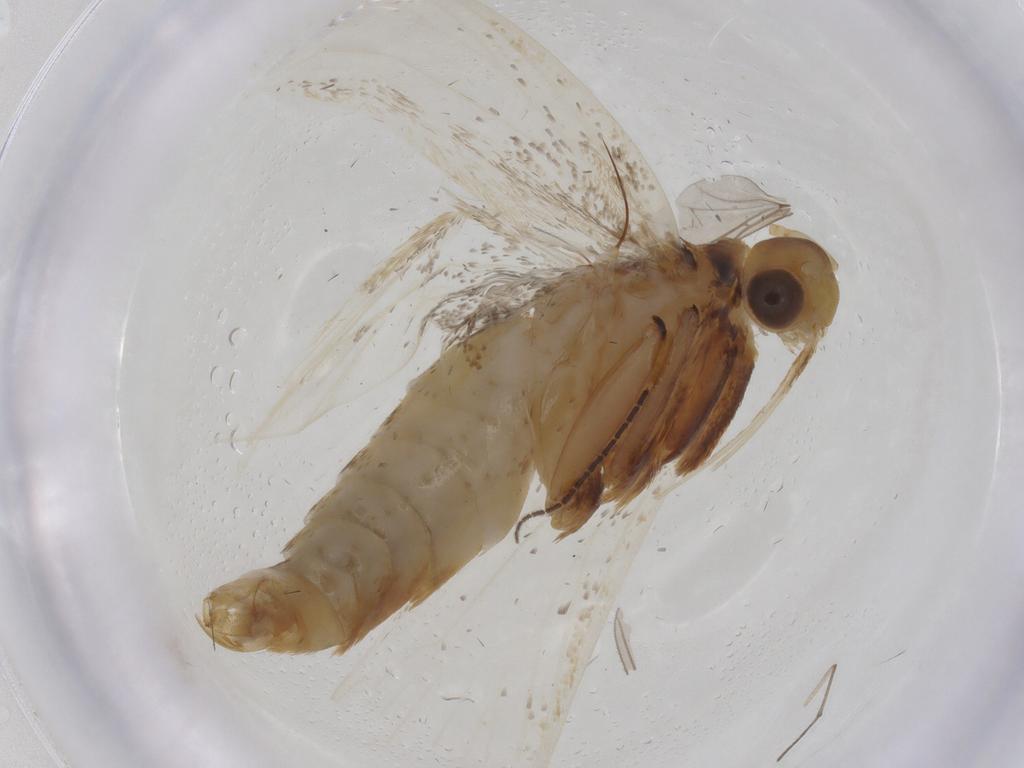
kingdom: Animalia
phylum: Arthropoda
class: Insecta
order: Lepidoptera
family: Lecithoceridae
